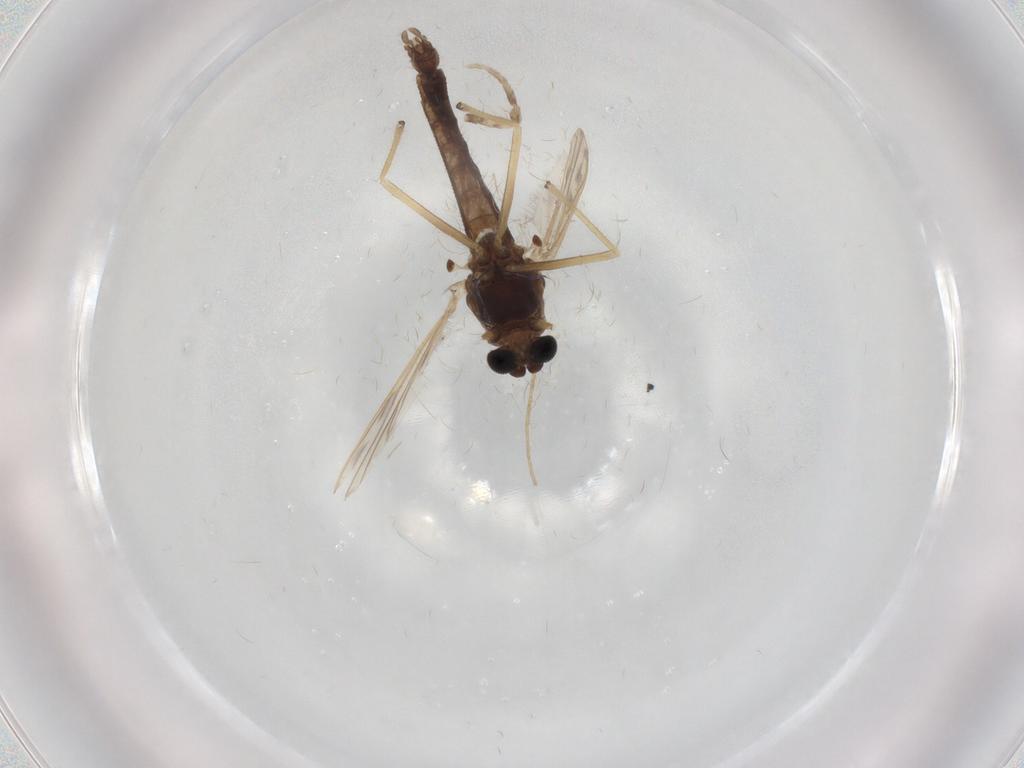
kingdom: Animalia
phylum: Arthropoda
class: Insecta
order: Diptera
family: Chironomidae
